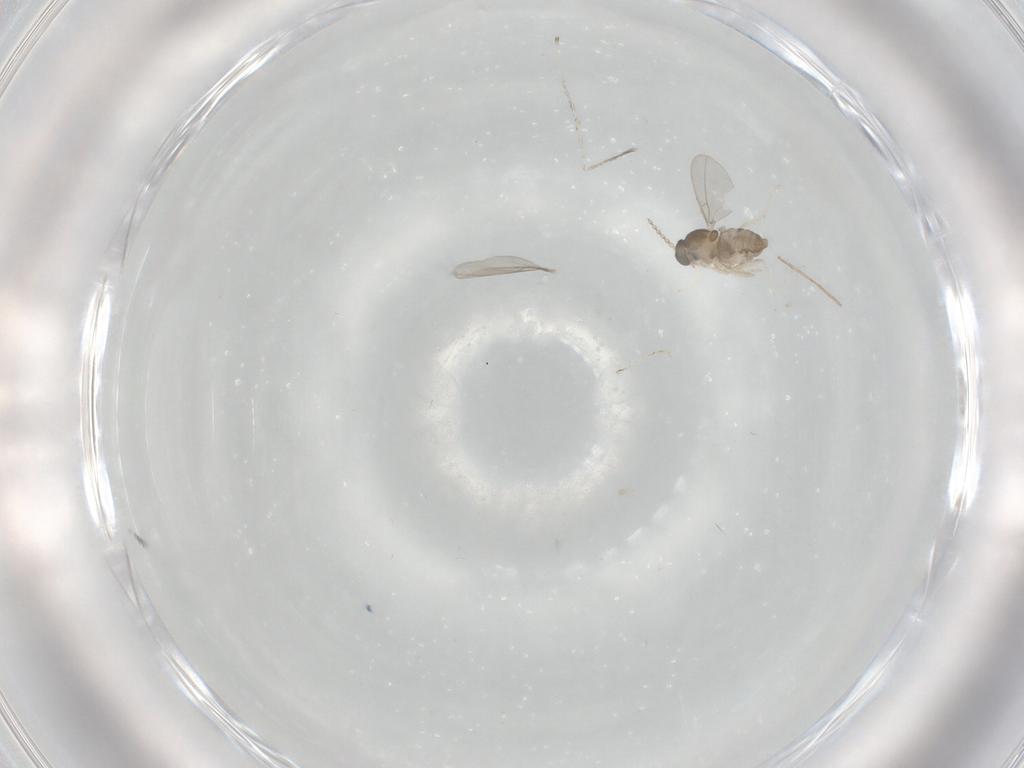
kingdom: Animalia
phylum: Arthropoda
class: Insecta
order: Diptera
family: Cecidomyiidae
